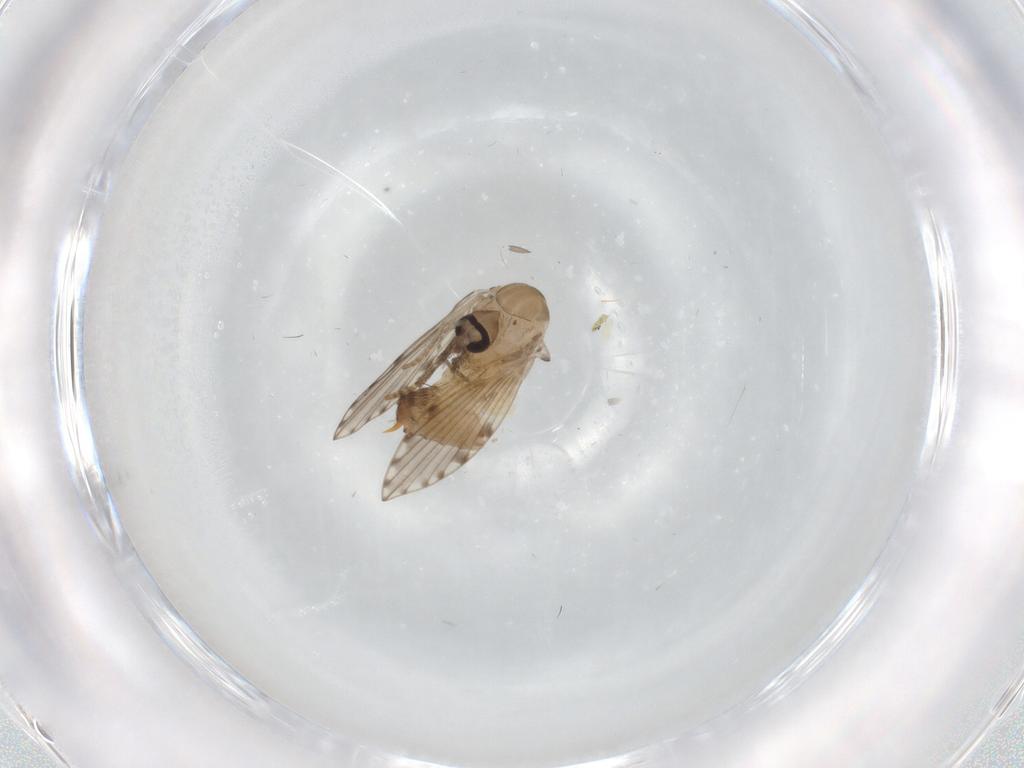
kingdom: Animalia
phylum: Arthropoda
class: Insecta
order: Diptera
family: Psychodidae
